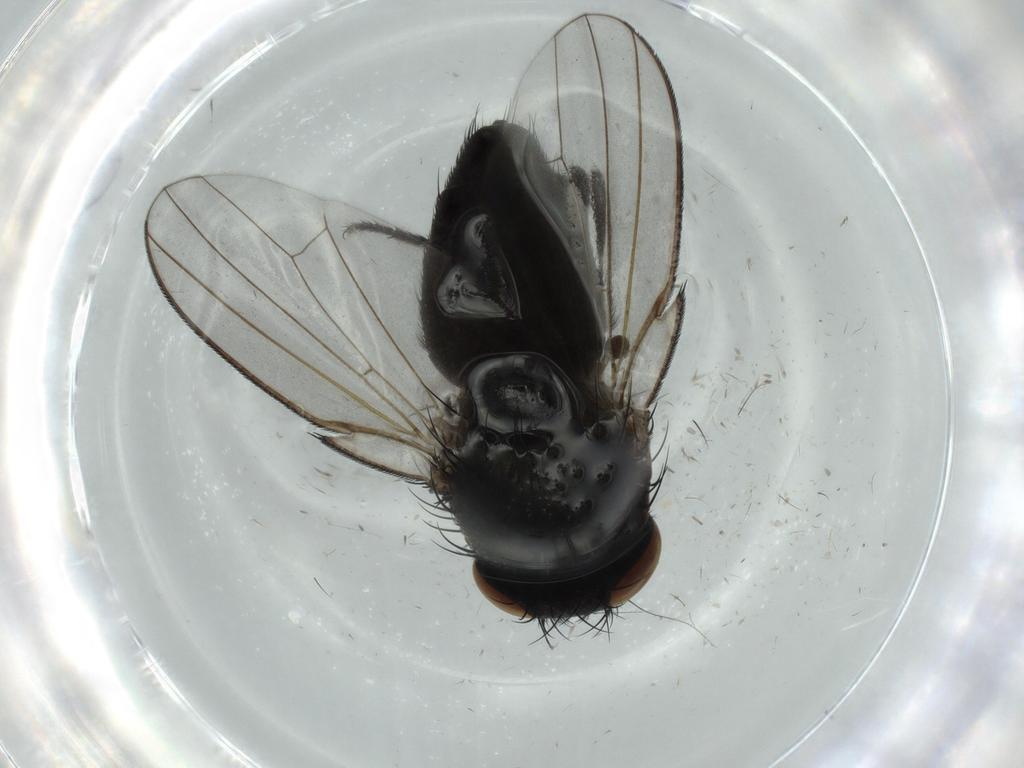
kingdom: Animalia
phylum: Arthropoda
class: Insecta
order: Diptera
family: Milichiidae
